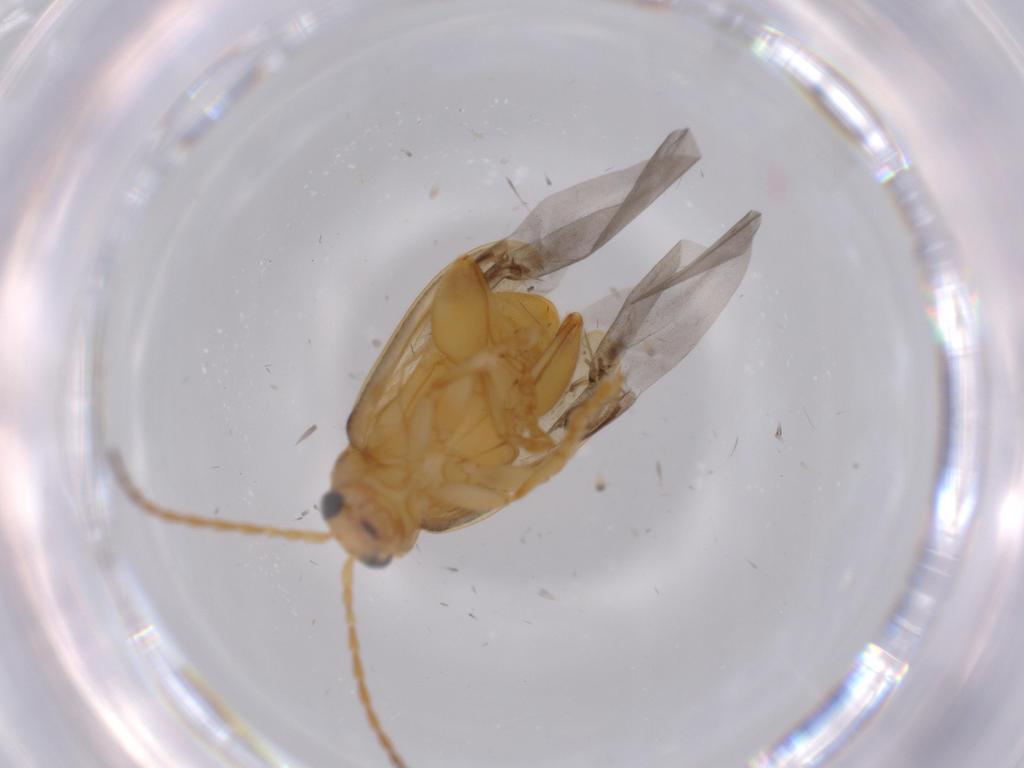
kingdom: Animalia
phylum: Arthropoda
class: Insecta
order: Coleoptera
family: Chrysomelidae
